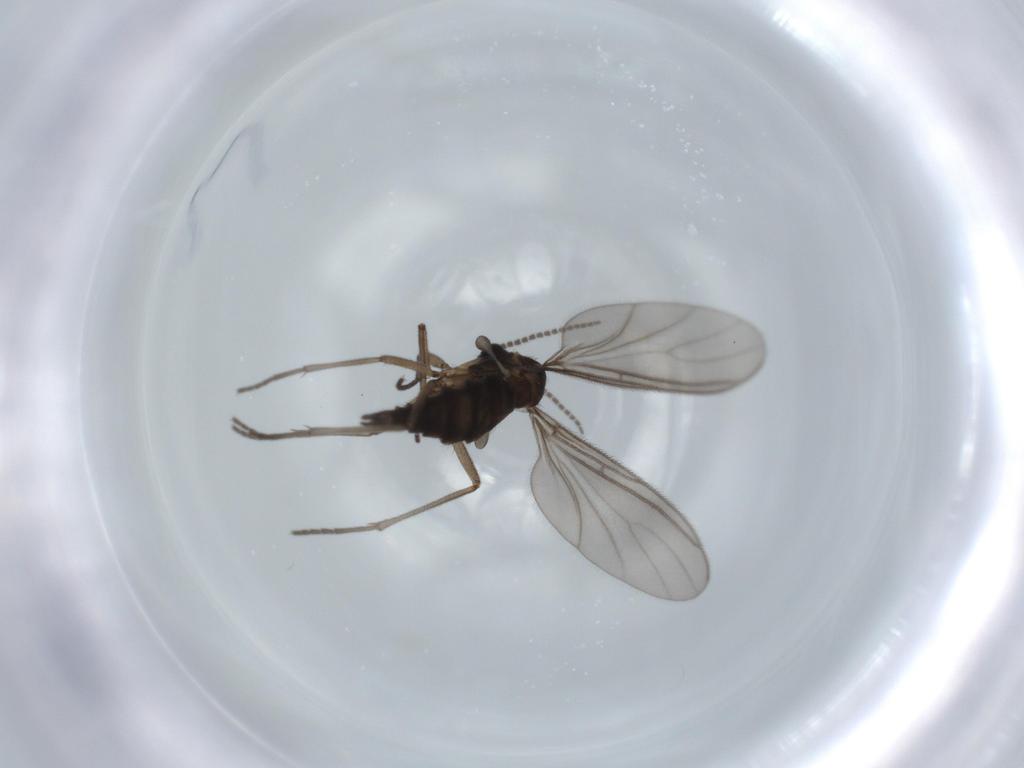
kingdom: Animalia
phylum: Arthropoda
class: Insecta
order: Diptera
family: Sciaridae
